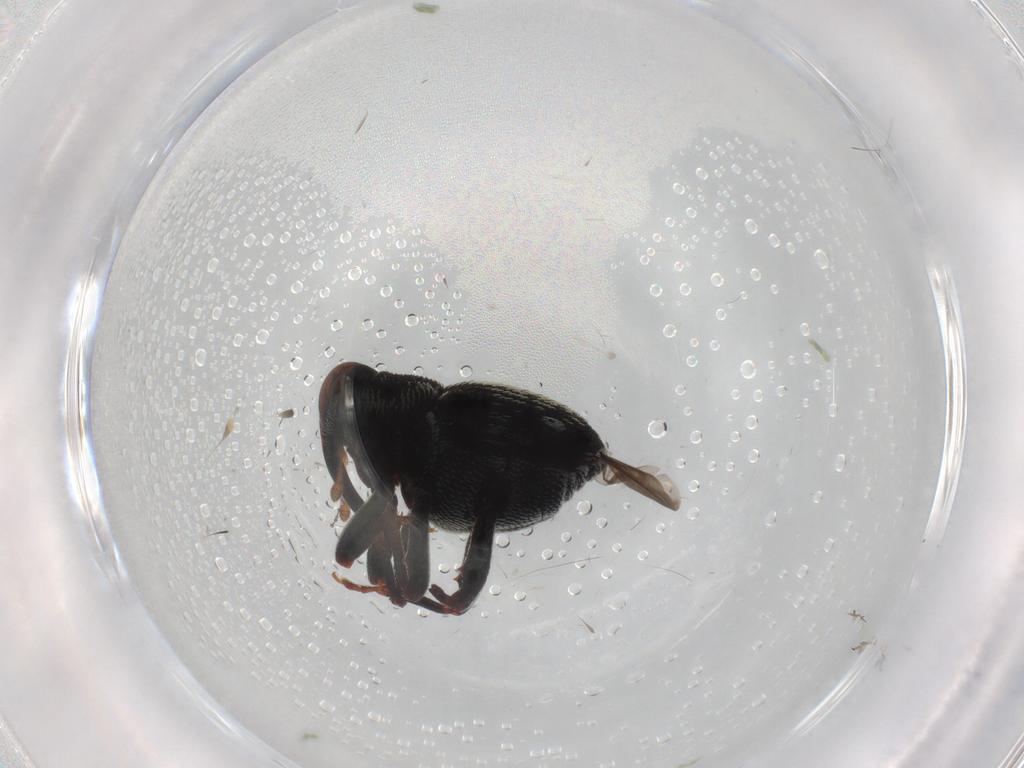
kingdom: Animalia
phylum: Arthropoda
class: Insecta
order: Coleoptera
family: Curculionidae
